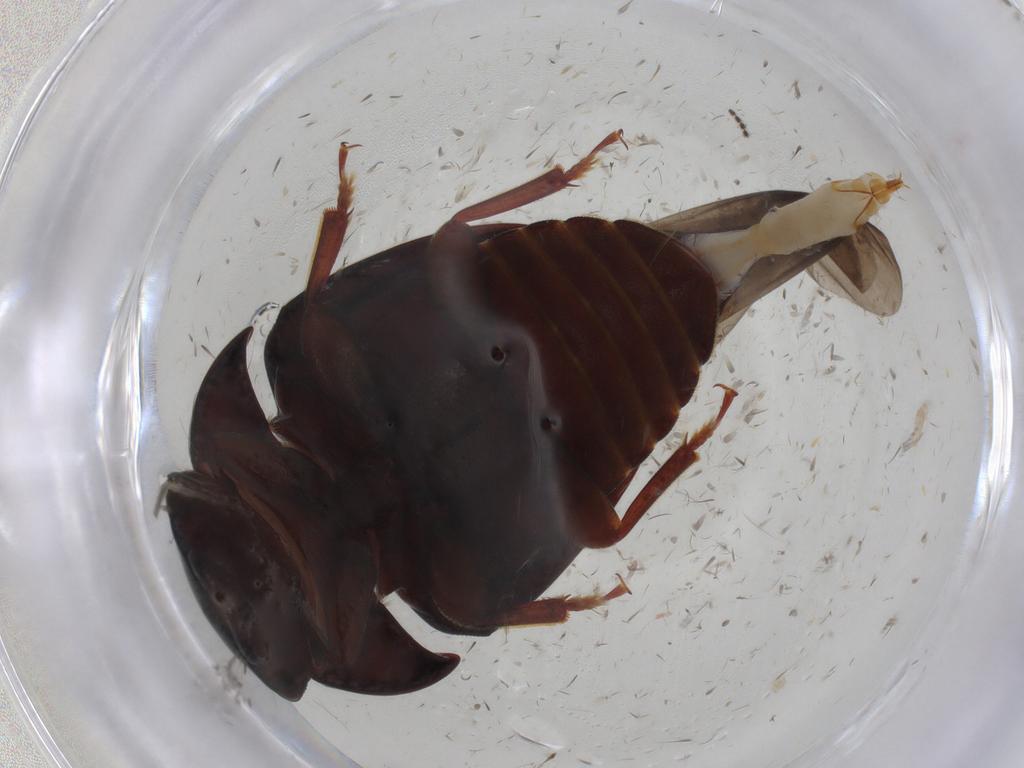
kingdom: Animalia
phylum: Arthropoda
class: Insecta
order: Coleoptera
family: Nitidulidae
